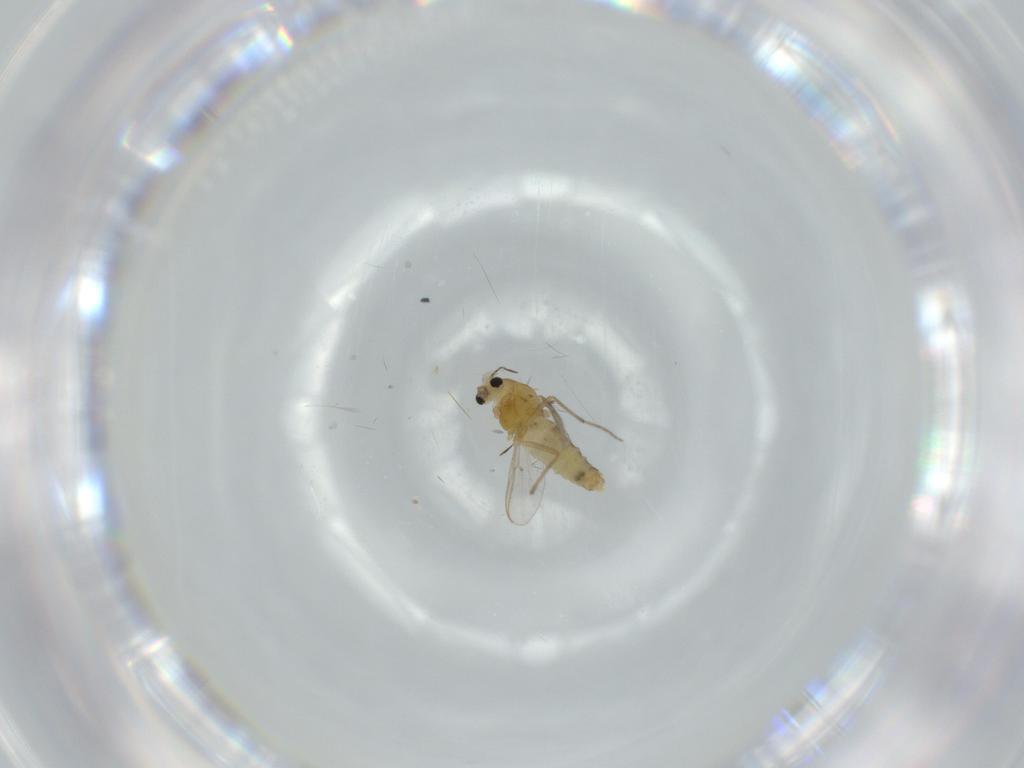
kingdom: Animalia
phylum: Arthropoda
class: Insecta
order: Diptera
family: Chironomidae
